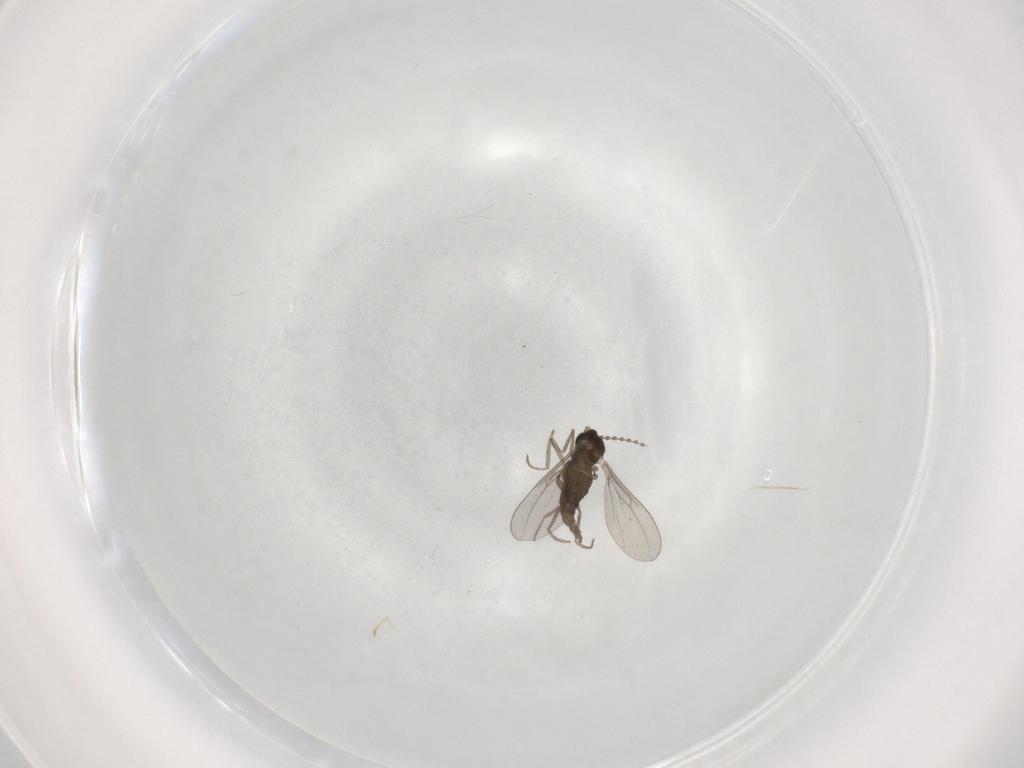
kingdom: Animalia
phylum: Arthropoda
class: Insecta
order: Diptera
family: Cecidomyiidae
